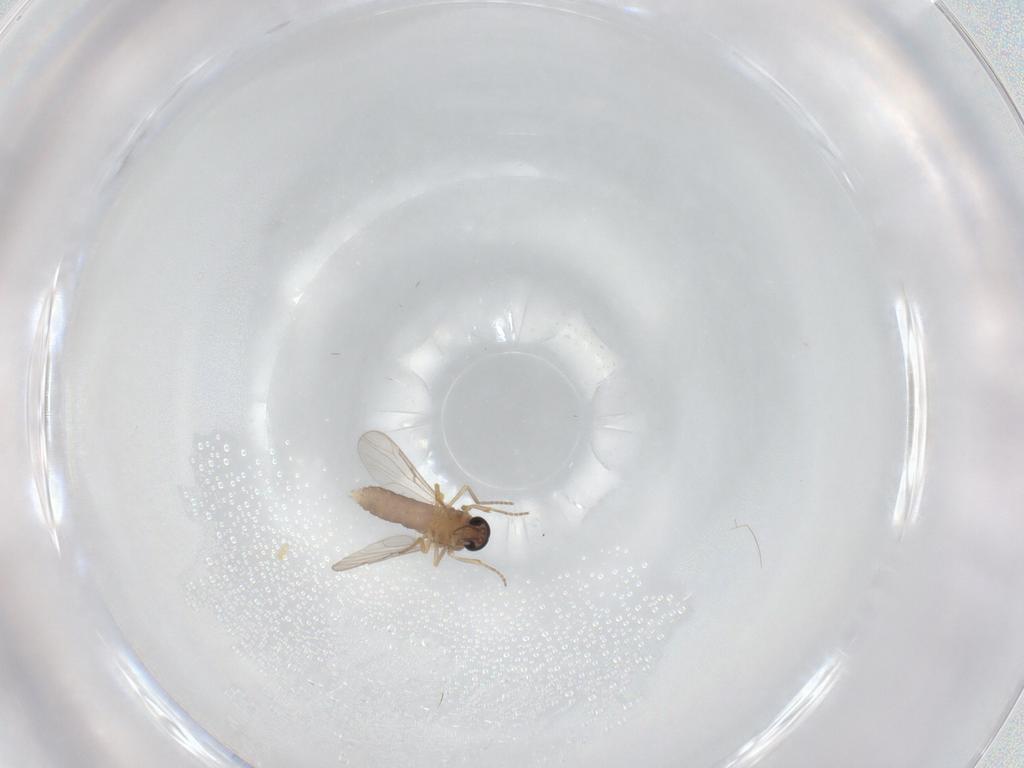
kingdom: Animalia
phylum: Arthropoda
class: Insecta
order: Diptera
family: Ceratopogonidae
